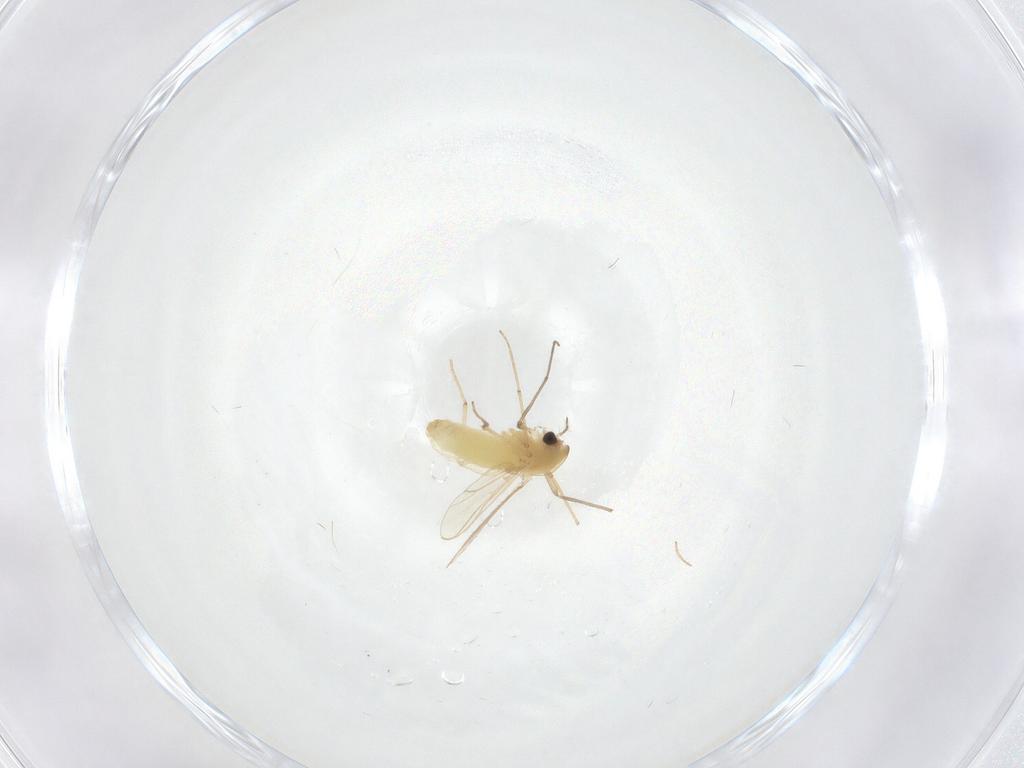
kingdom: Animalia
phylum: Arthropoda
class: Insecta
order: Diptera
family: Chironomidae
